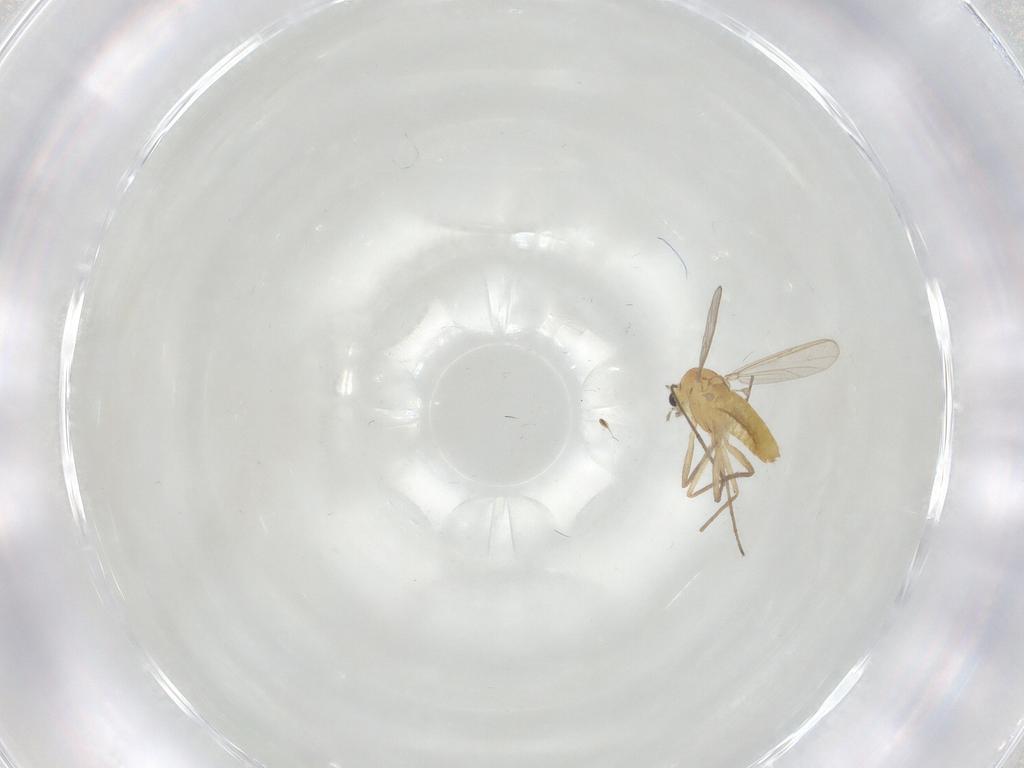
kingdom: Animalia
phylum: Arthropoda
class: Insecta
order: Diptera
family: Chironomidae
